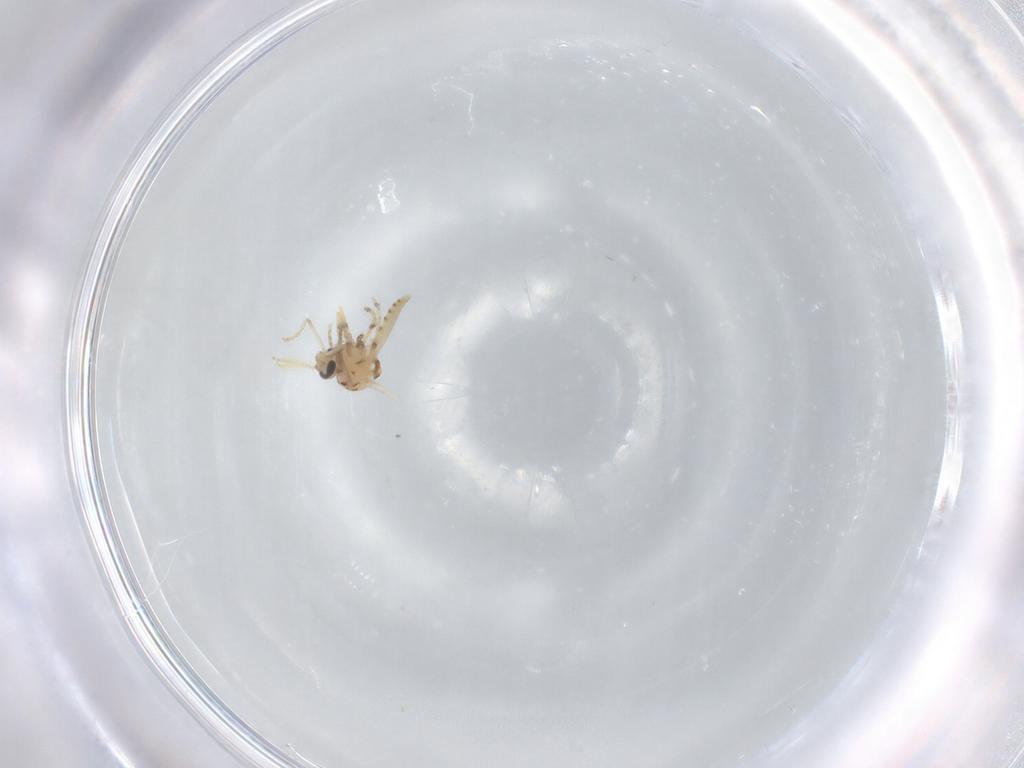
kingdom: Animalia
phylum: Arthropoda
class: Insecta
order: Diptera
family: Ceratopogonidae
